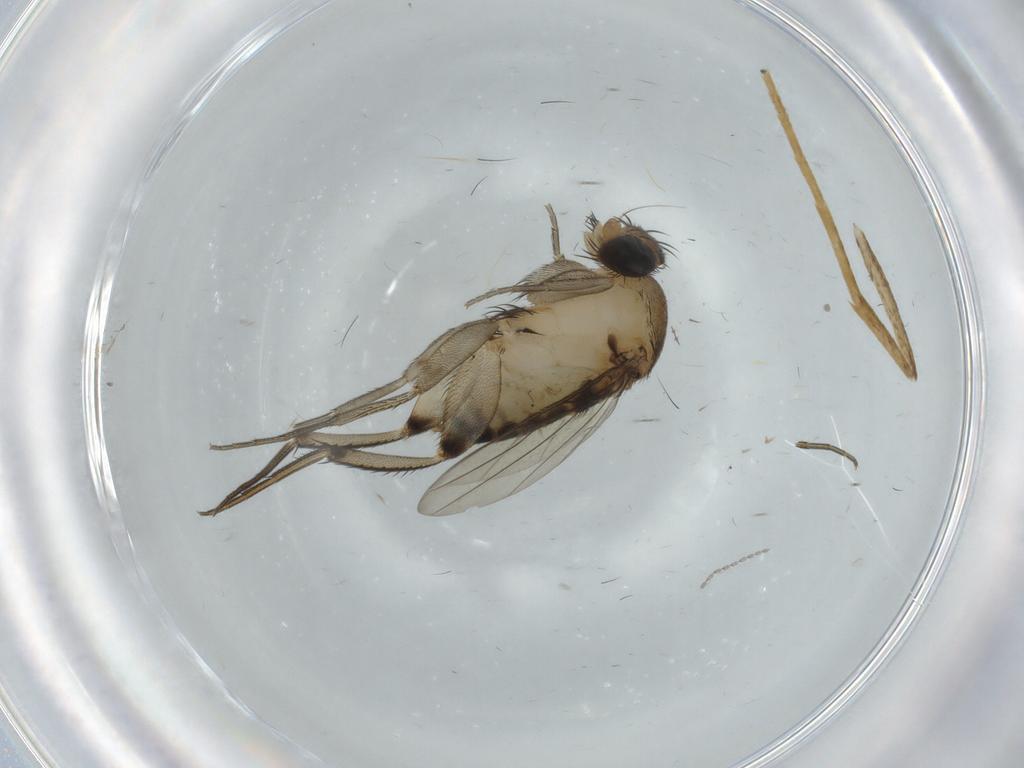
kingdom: Animalia
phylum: Arthropoda
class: Insecta
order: Diptera
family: Phoridae
